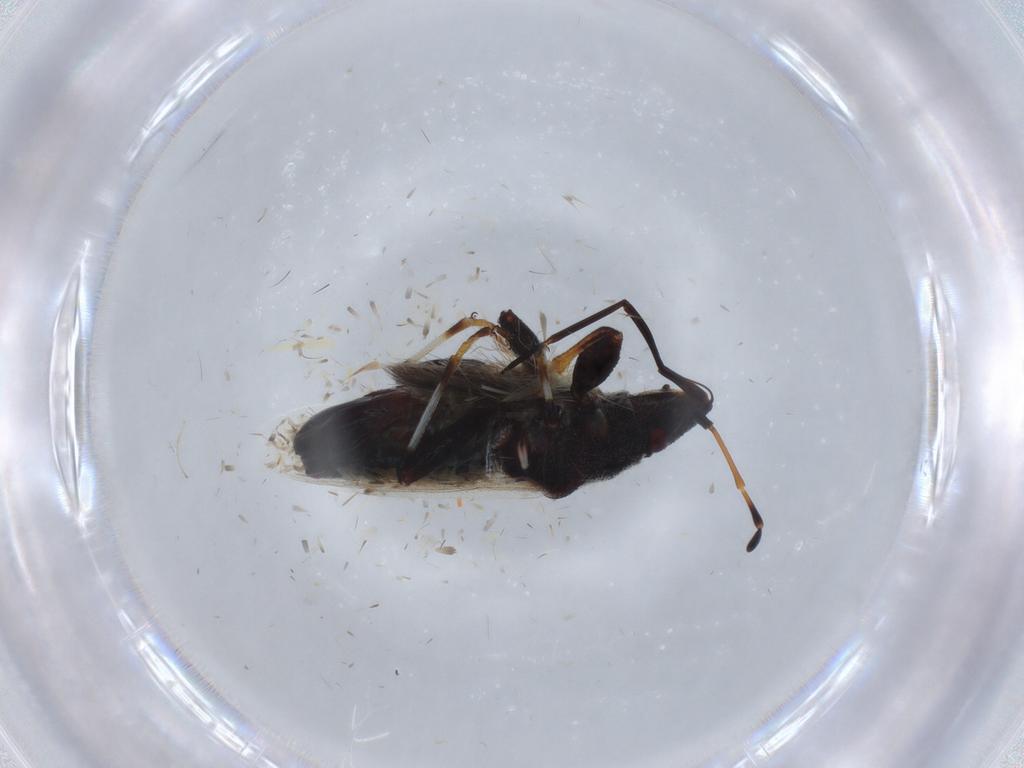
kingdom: Animalia
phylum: Arthropoda
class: Insecta
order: Hemiptera
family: Oxycarenidae
